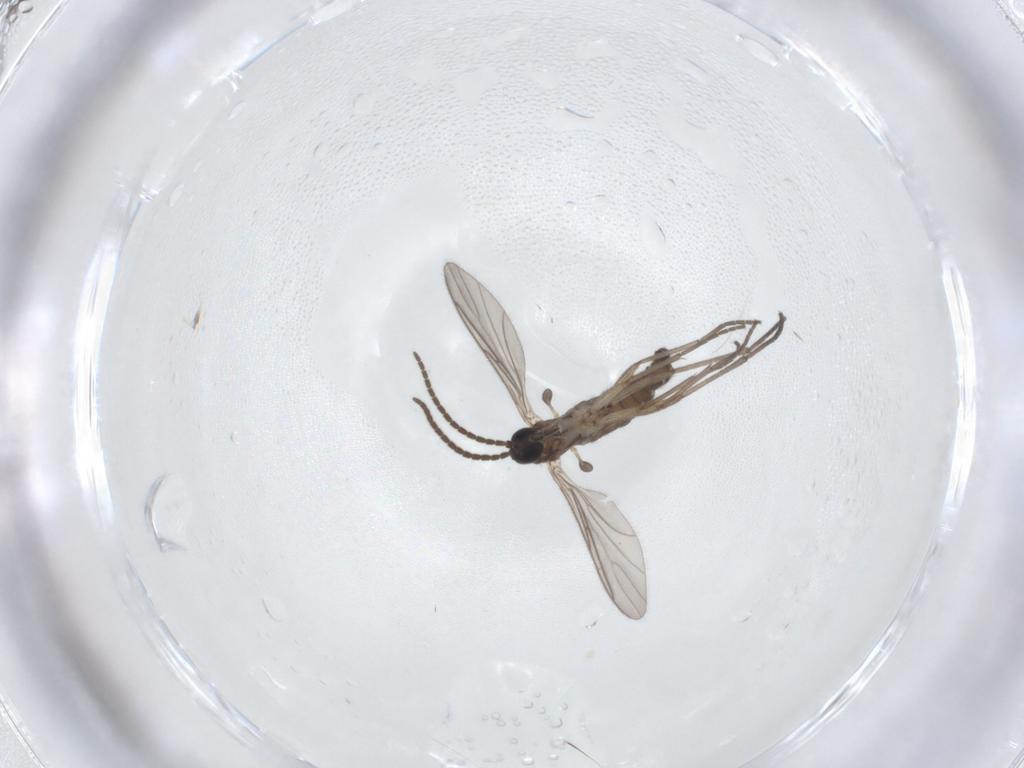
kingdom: Animalia
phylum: Arthropoda
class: Insecta
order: Diptera
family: Sciaridae
